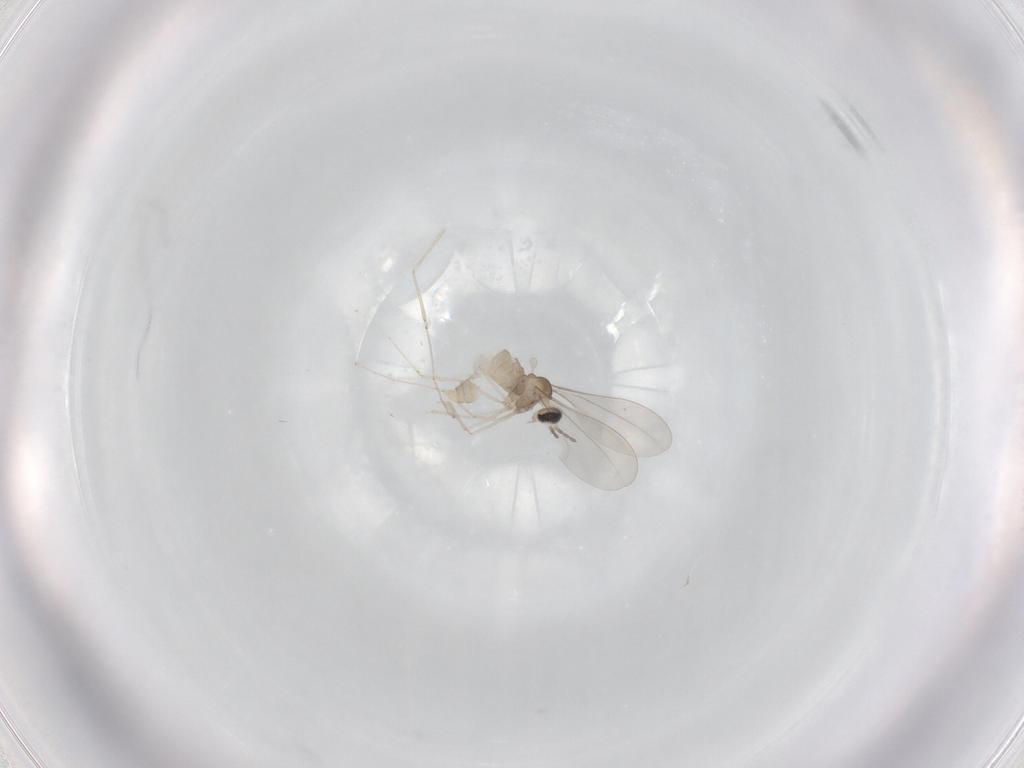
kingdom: Animalia
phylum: Arthropoda
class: Insecta
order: Diptera
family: Cecidomyiidae
